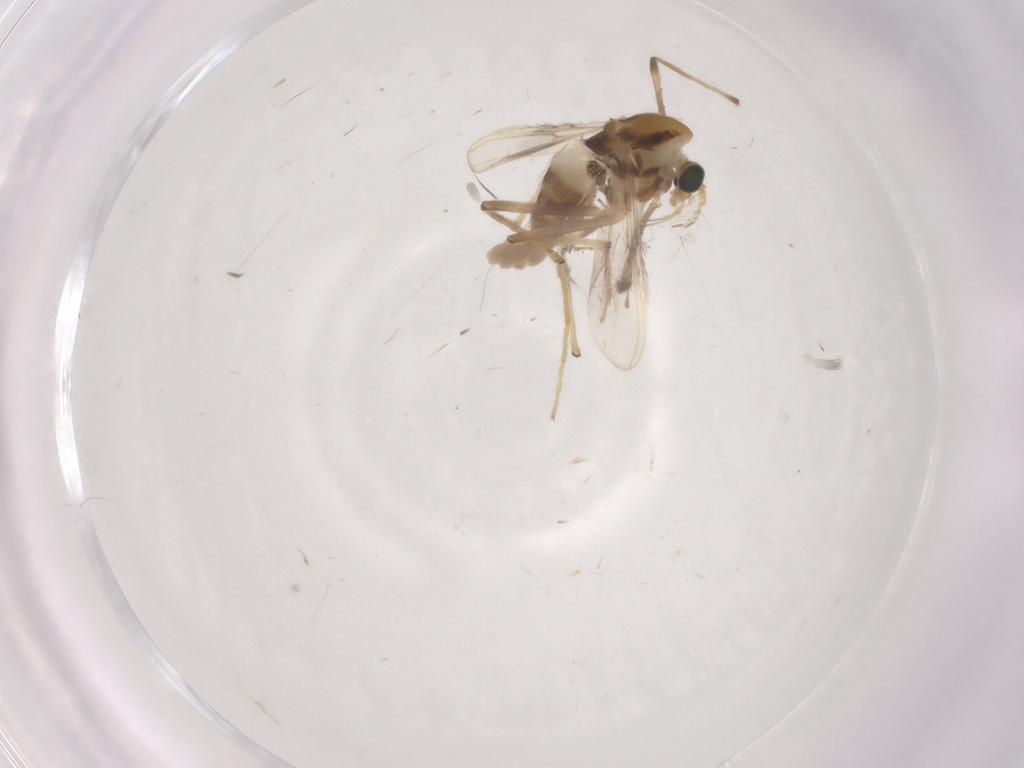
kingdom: Animalia
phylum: Arthropoda
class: Insecta
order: Diptera
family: Chironomidae
